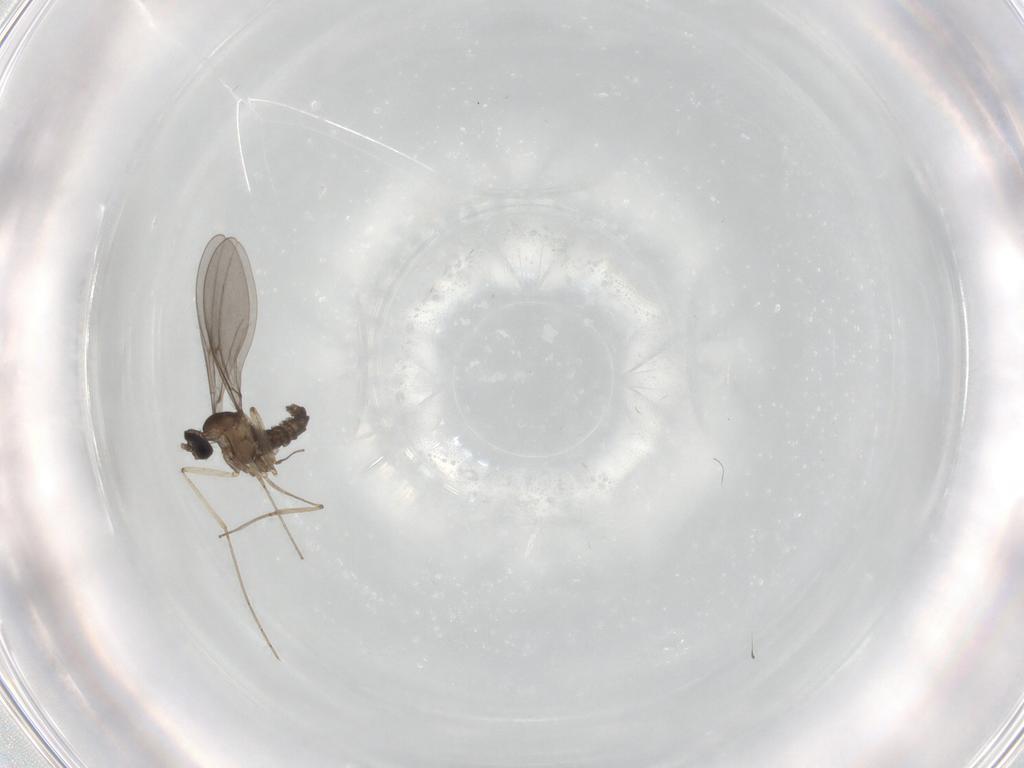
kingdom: Animalia
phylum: Arthropoda
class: Insecta
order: Diptera
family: Cecidomyiidae
